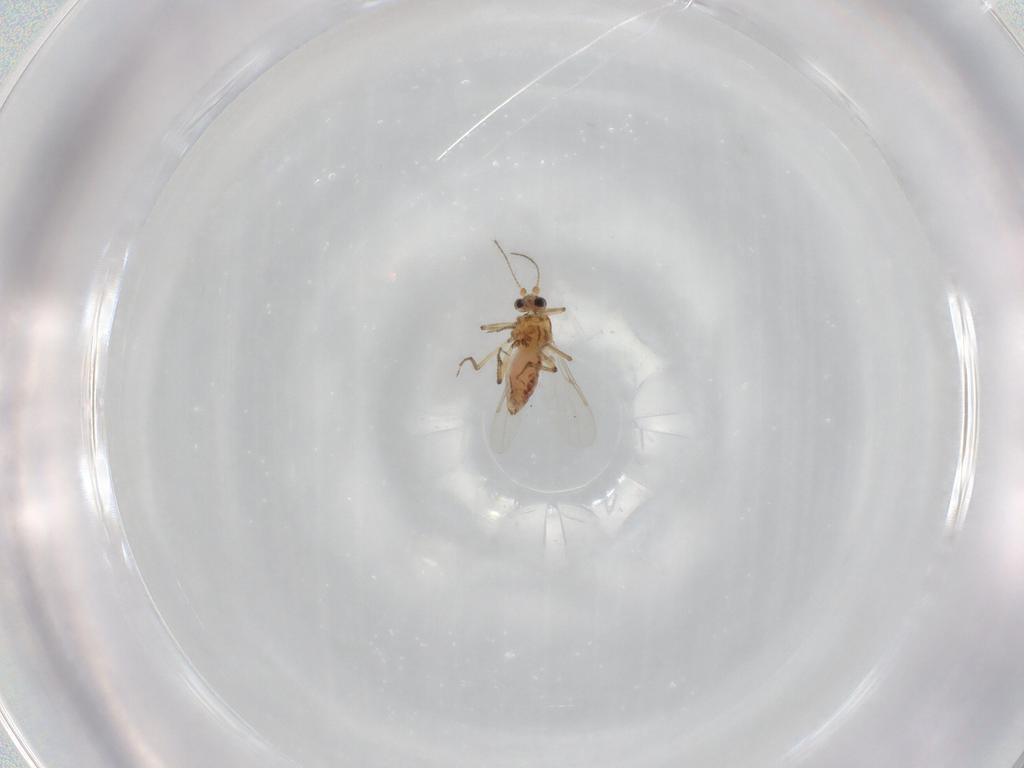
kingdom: Animalia
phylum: Arthropoda
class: Insecta
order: Diptera
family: Ceratopogonidae
